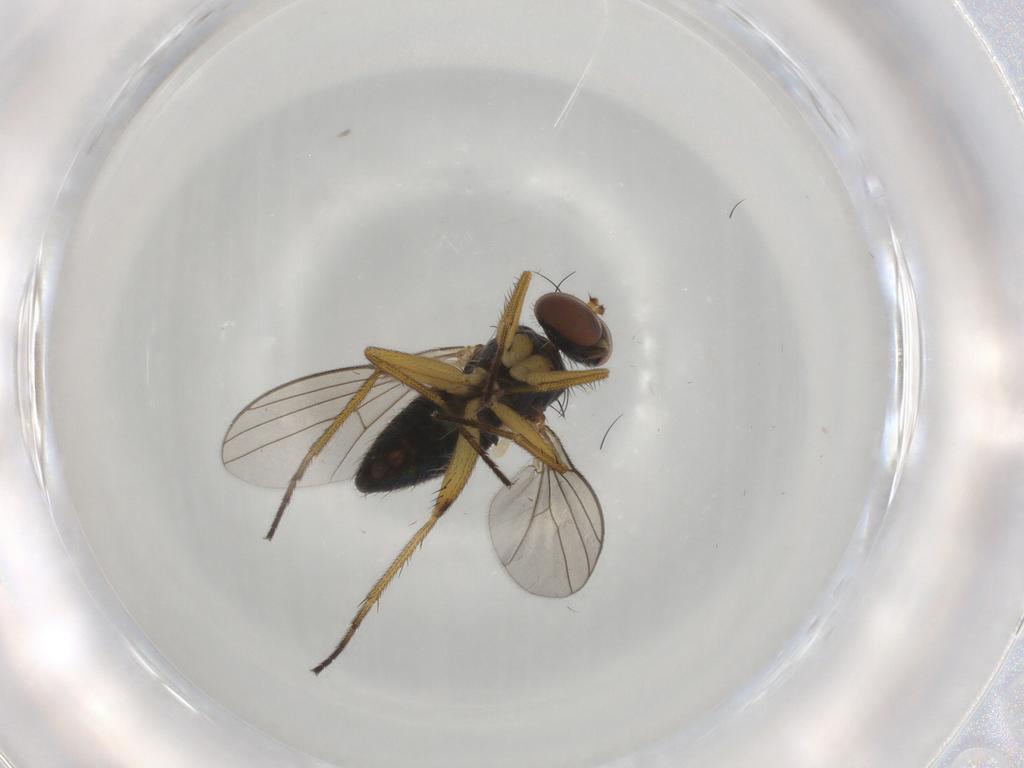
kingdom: Animalia
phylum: Arthropoda
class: Insecta
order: Diptera
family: Dolichopodidae
